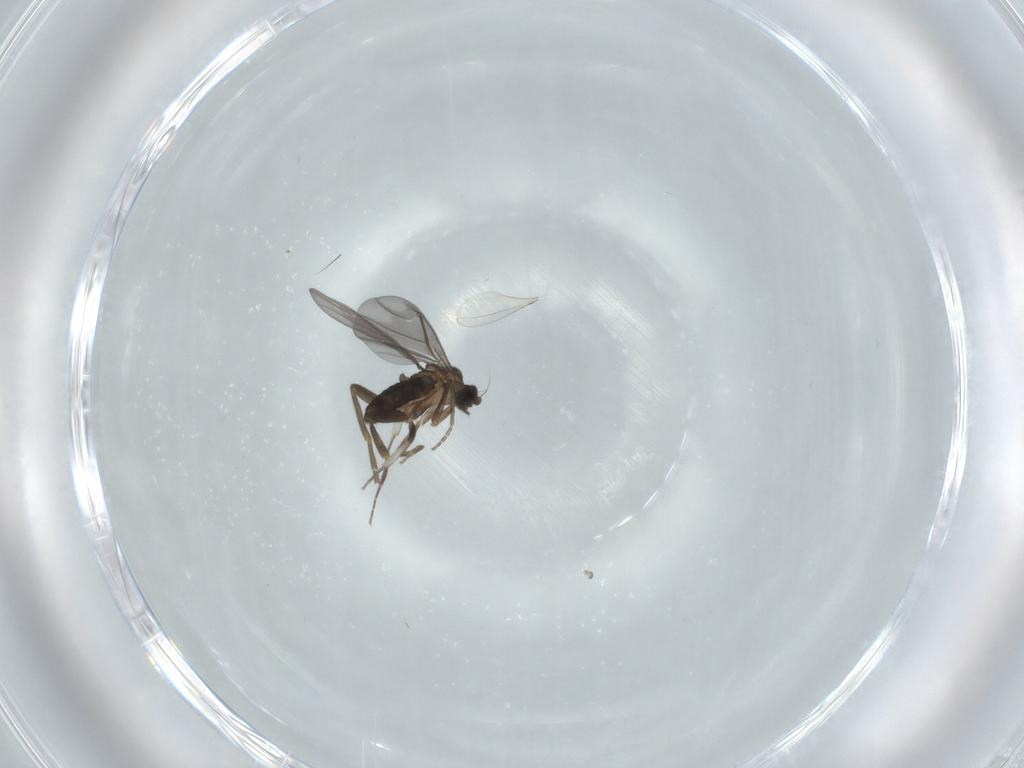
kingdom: Animalia
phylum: Arthropoda
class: Insecta
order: Diptera
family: Phoridae
